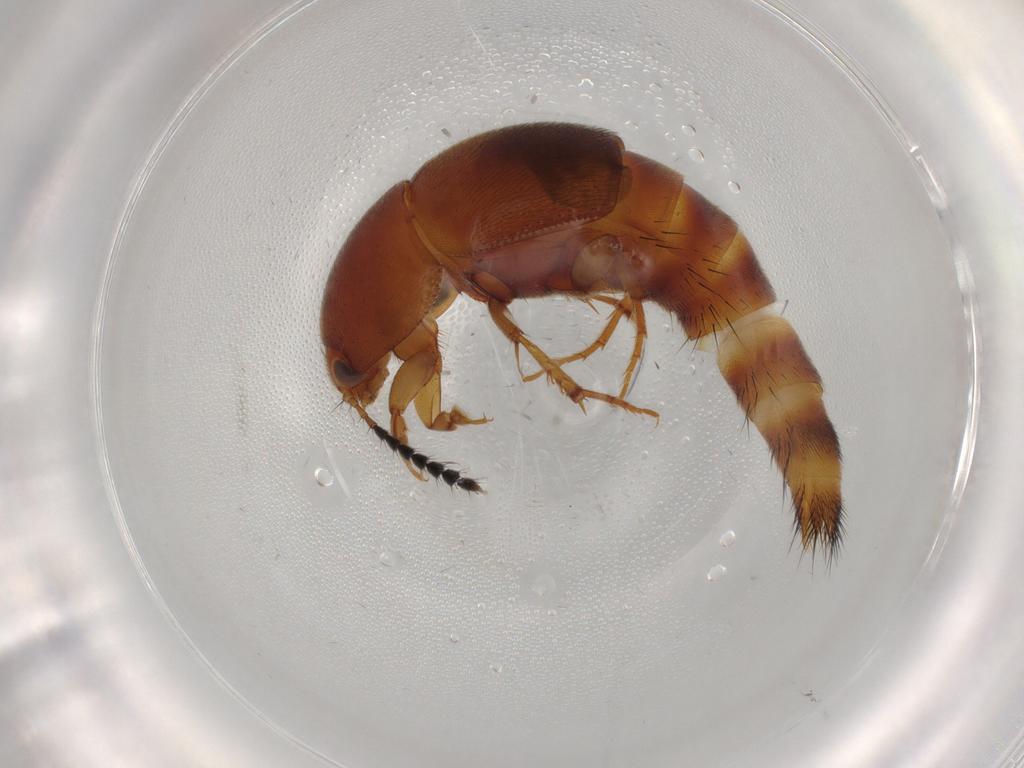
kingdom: Animalia
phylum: Arthropoda
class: Insecta
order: Coleoptera
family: Staphylinidae
